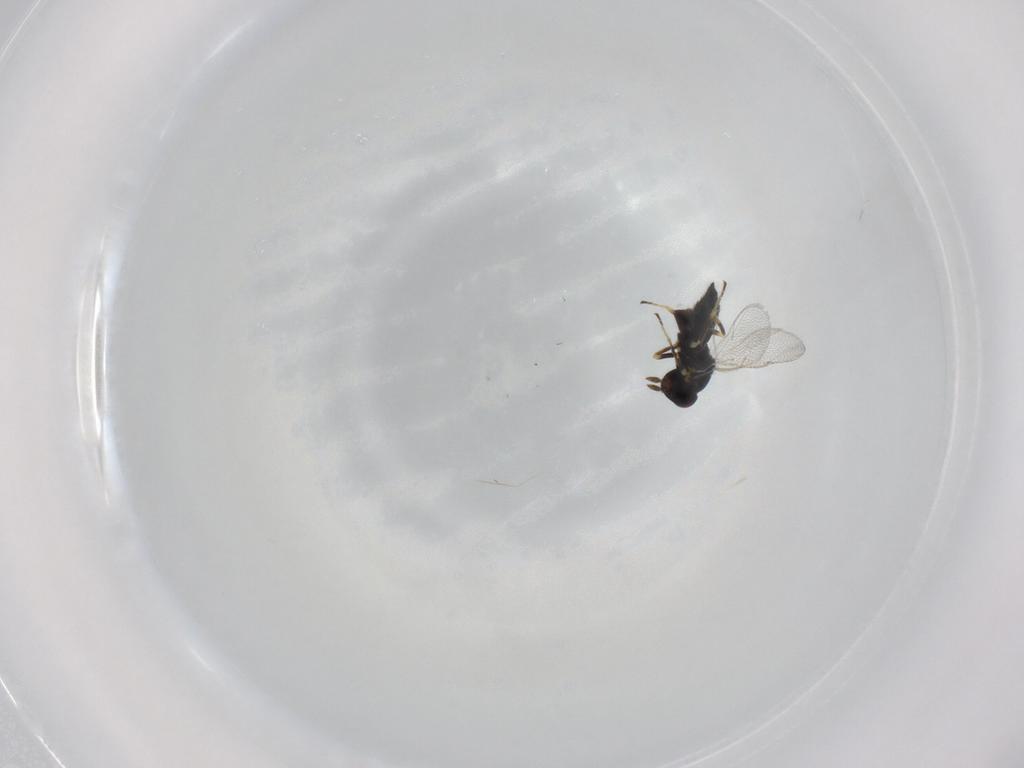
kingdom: Animalia
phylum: Arthropoda
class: Insecta
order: Hymenoptera
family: Eulophidae
